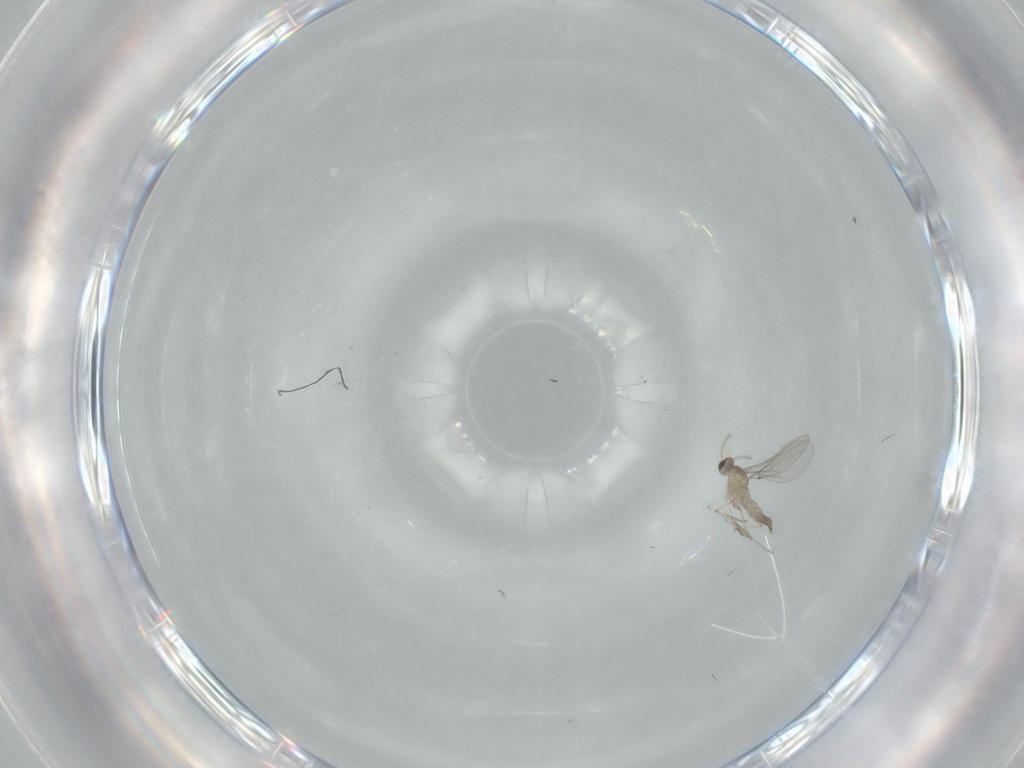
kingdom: Animalia
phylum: Arthropoda
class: Insecta
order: Diptera
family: Cecidomyiidae
